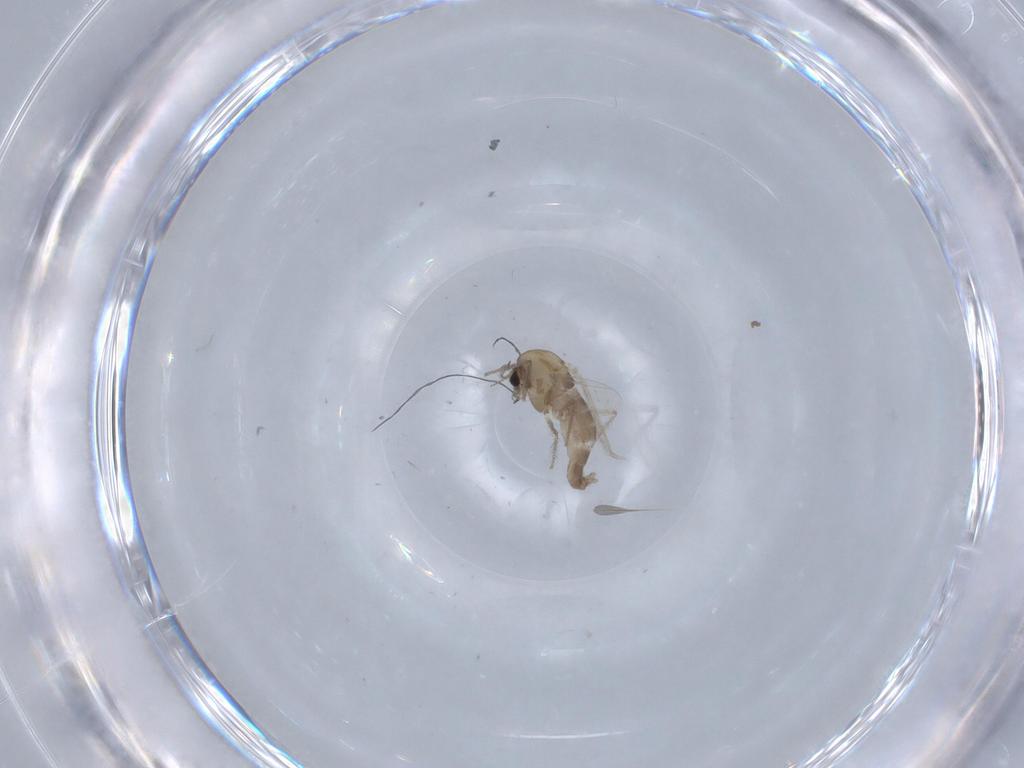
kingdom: Animalia
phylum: Arthropoda
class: Insecta
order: Diptera
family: Chironomidae
